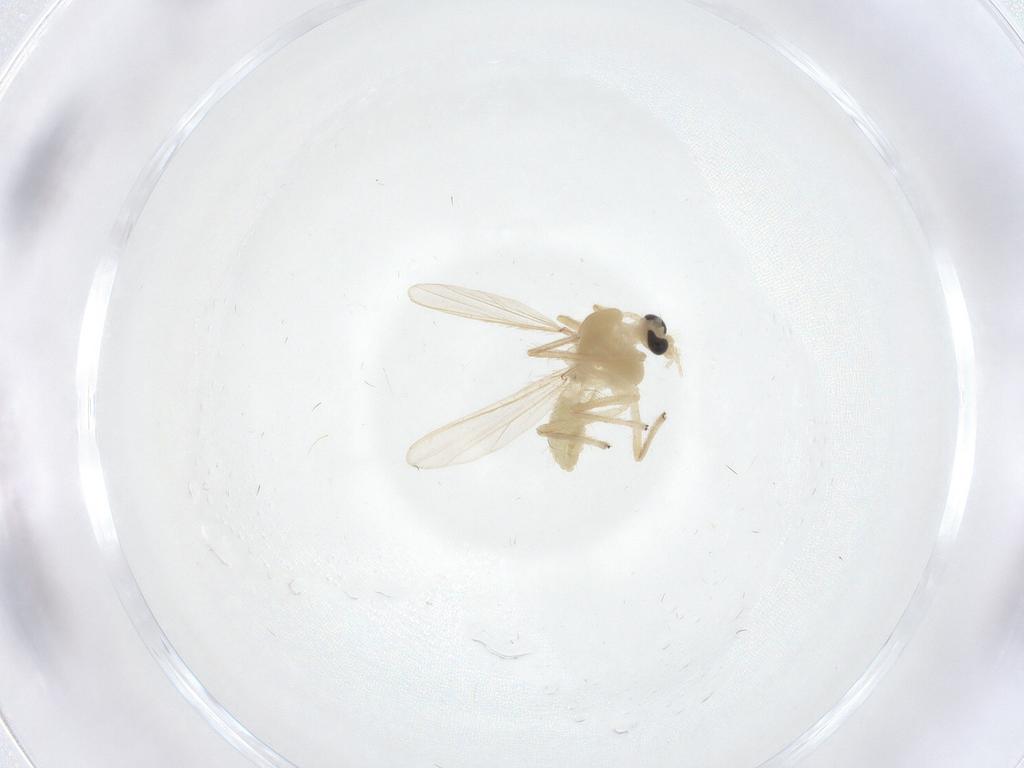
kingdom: Animalia
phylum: Arthropoda
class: Insecta
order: Diptera
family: Chironomidae
